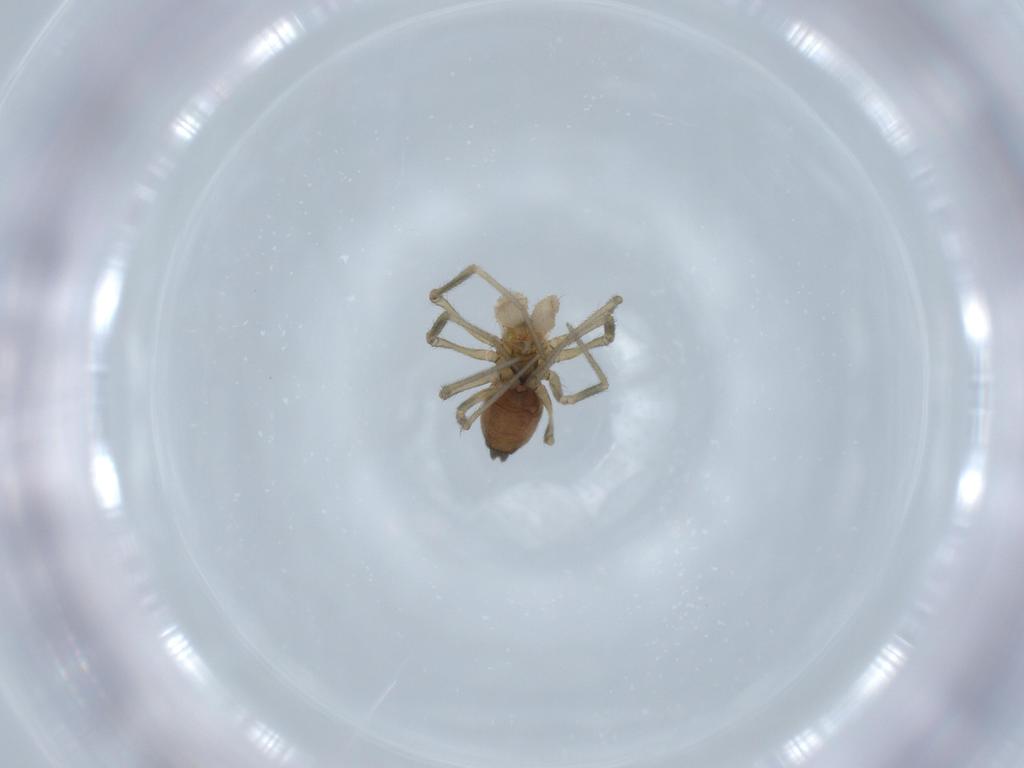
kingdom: Animalia
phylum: Arthropoda
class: Arachnida
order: Araneae
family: Linyphiidae
